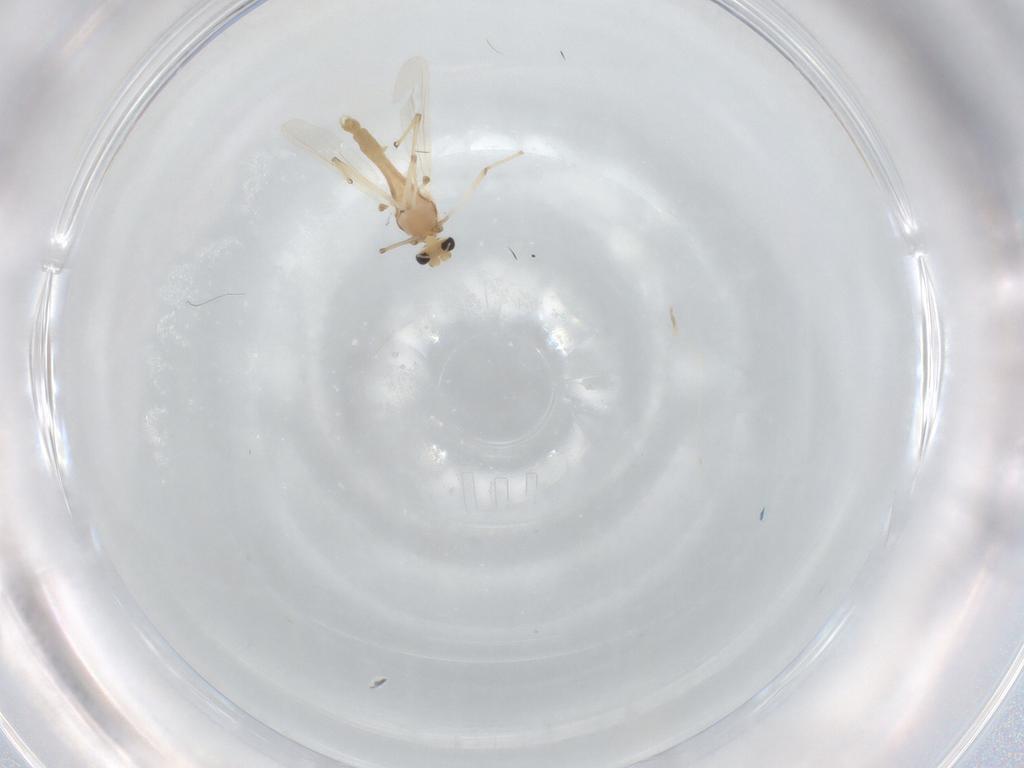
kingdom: Animalia
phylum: Arthropoda
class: Insecta
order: Diptera
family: Chironomidae
